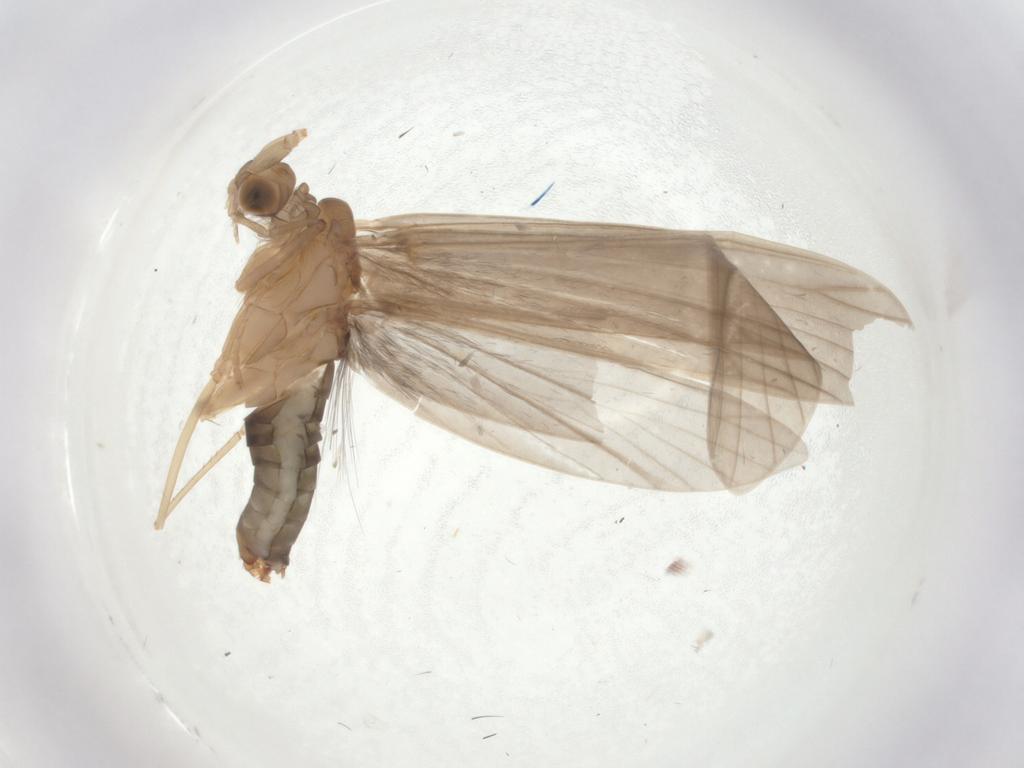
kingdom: Animalia
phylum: Arthropoda
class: Insecta
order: Trichoptera
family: Leptoceridae
